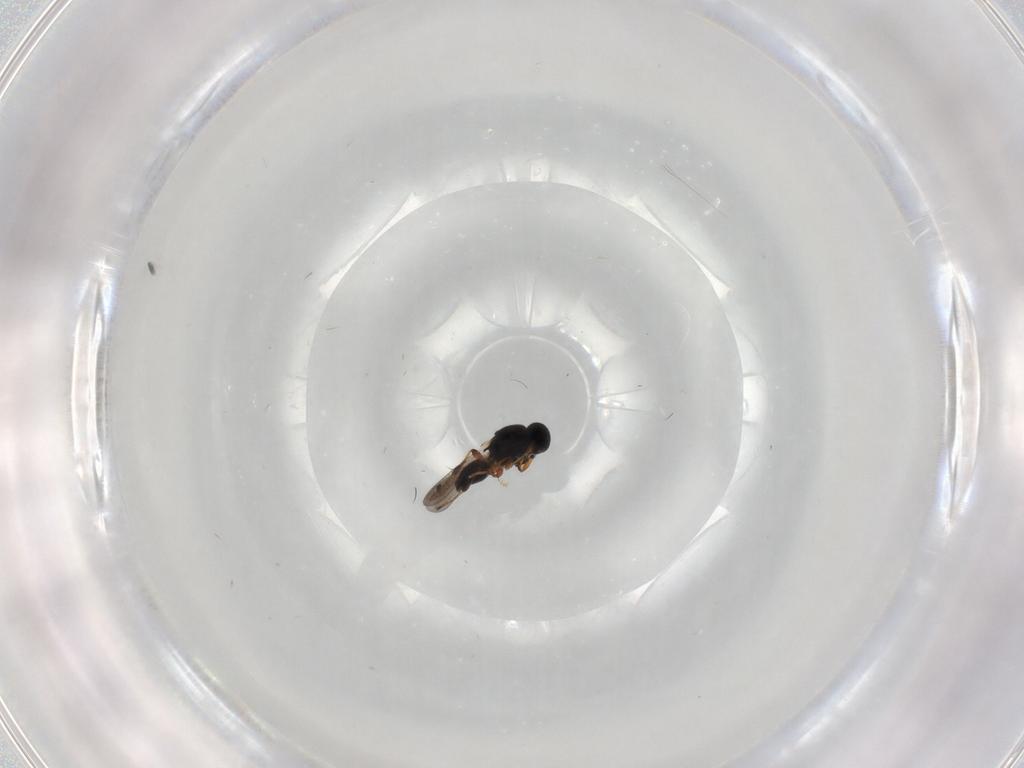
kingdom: Animalia
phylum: Arthropoda
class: Insecta
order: Hymenoptera
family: Platygastridae
